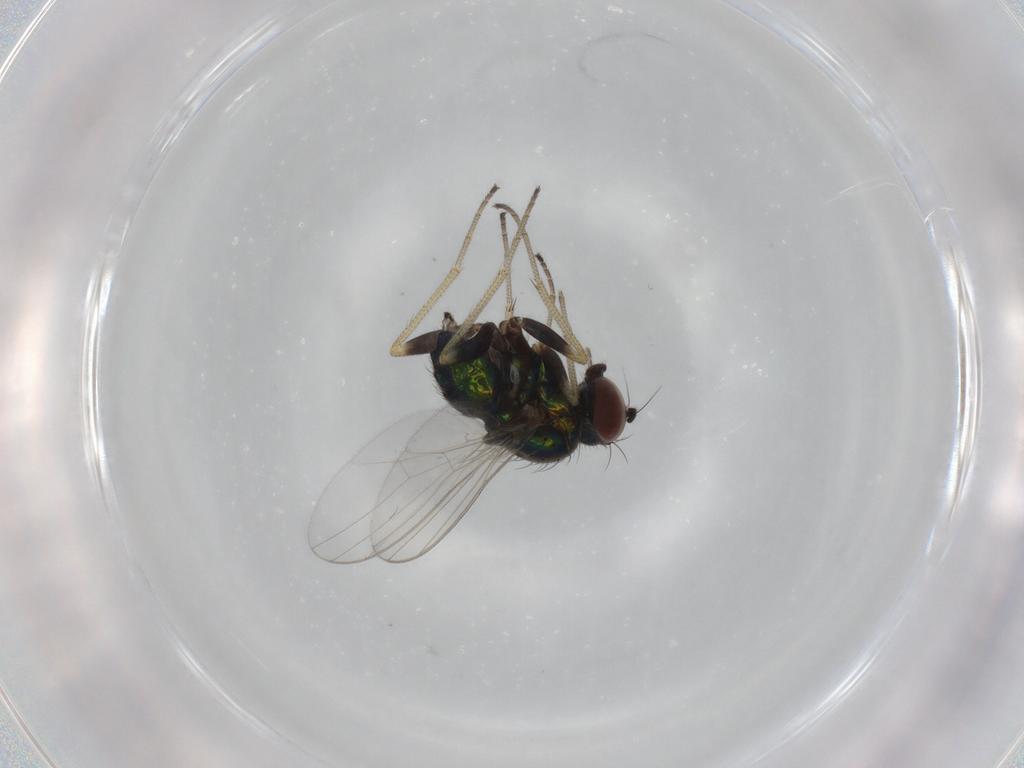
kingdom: Animalia
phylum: Arthropoda
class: Insecta
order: Diptera
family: Dolichopodidae
